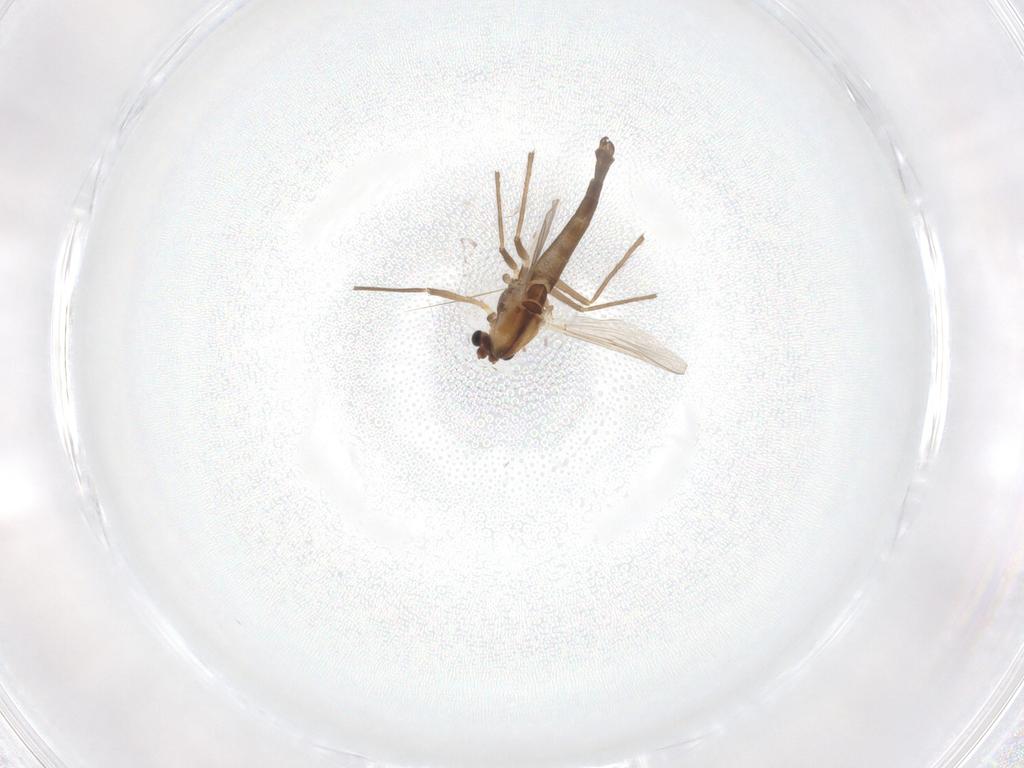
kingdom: Animalia
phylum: Arthropoda
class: Insecta
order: Diptera
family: Chironomidae
